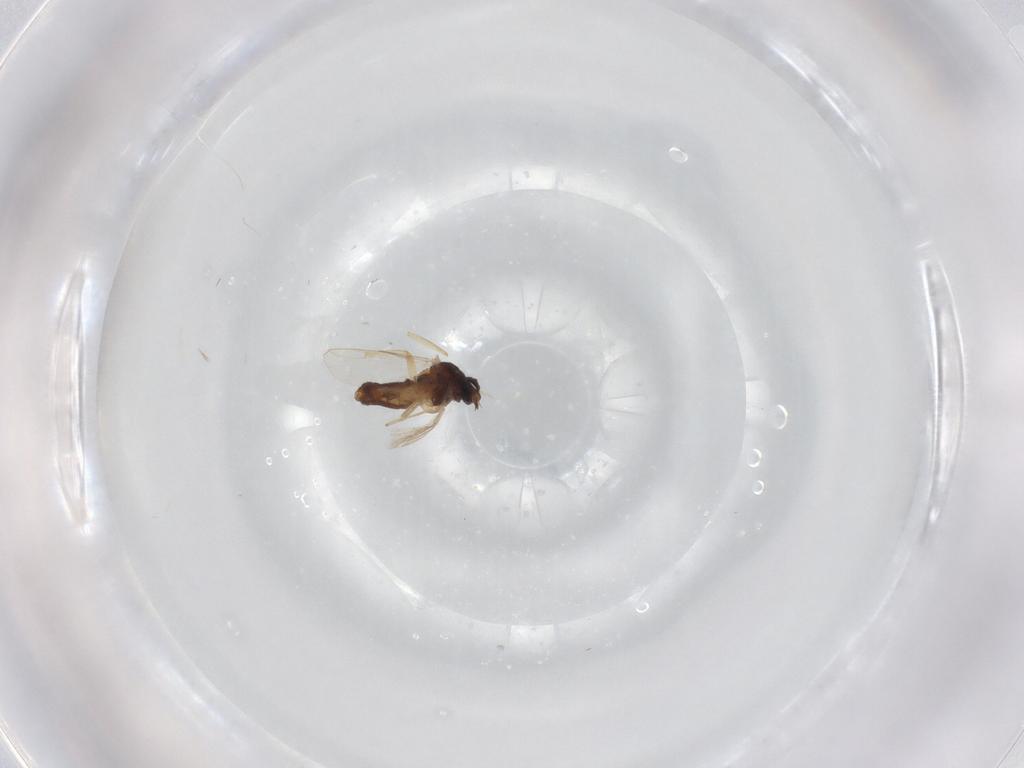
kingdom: Animalia
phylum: Arthropoda
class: Insecta
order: Diptera
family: Ceratopogonidae
